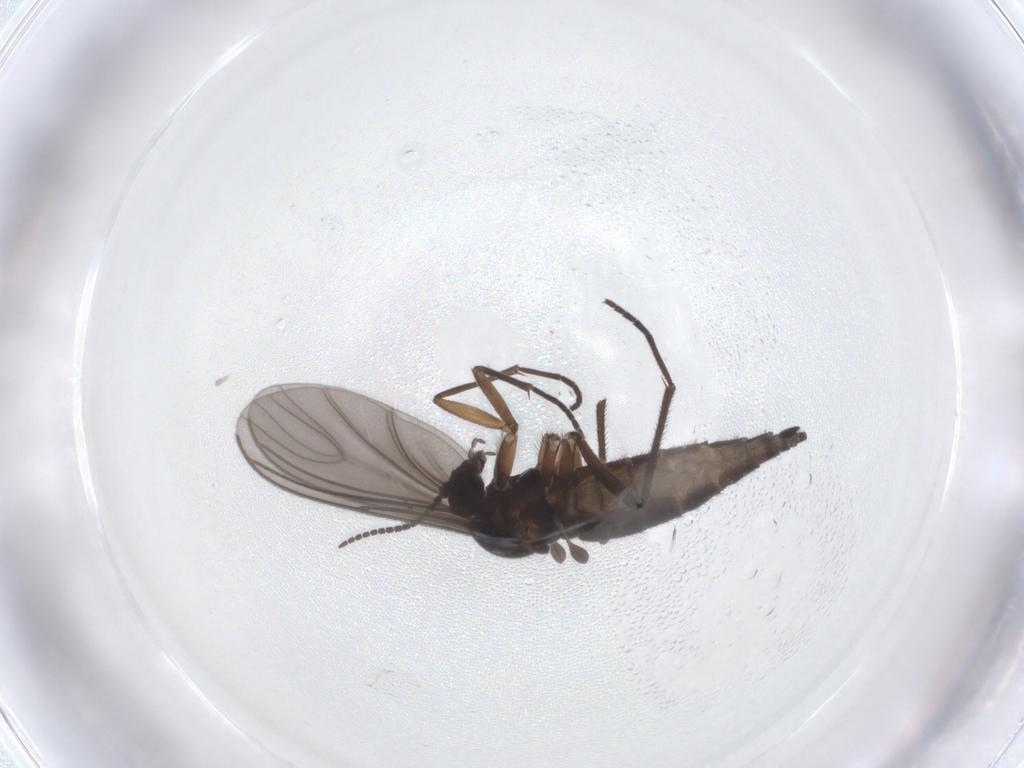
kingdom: Animalia
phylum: Arthropoda
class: Insecta
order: Diptera
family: Sciaridae
